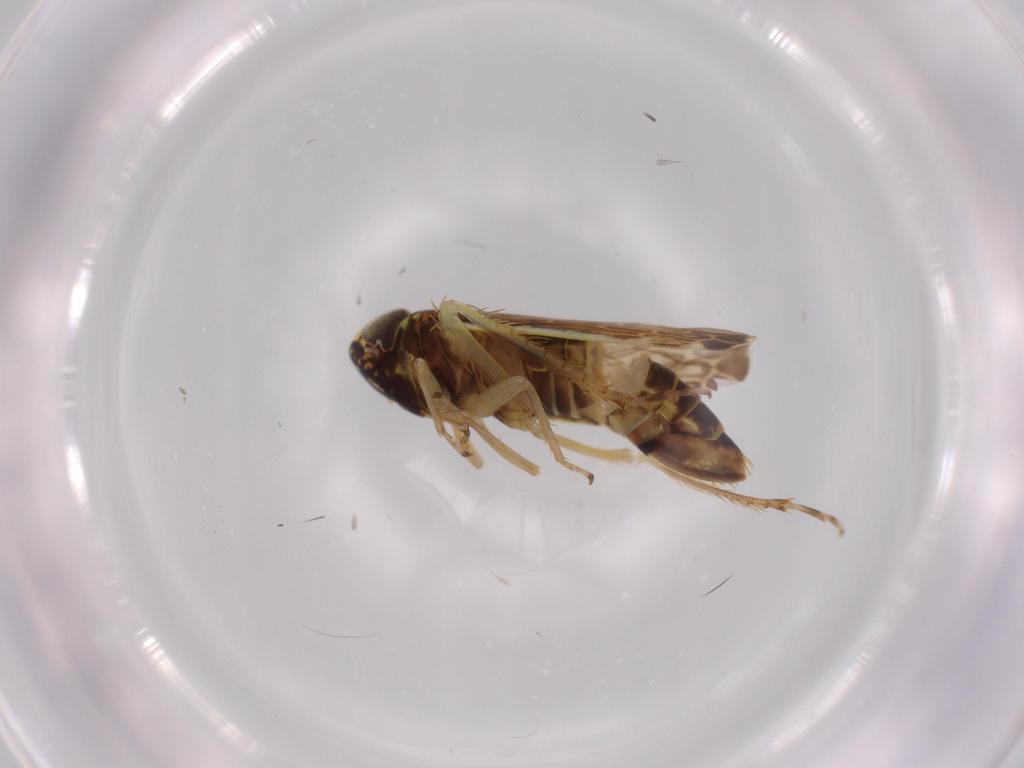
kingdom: Animalia
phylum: Arthropoda
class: Insecta
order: Hemiptera
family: Cicadellidae
